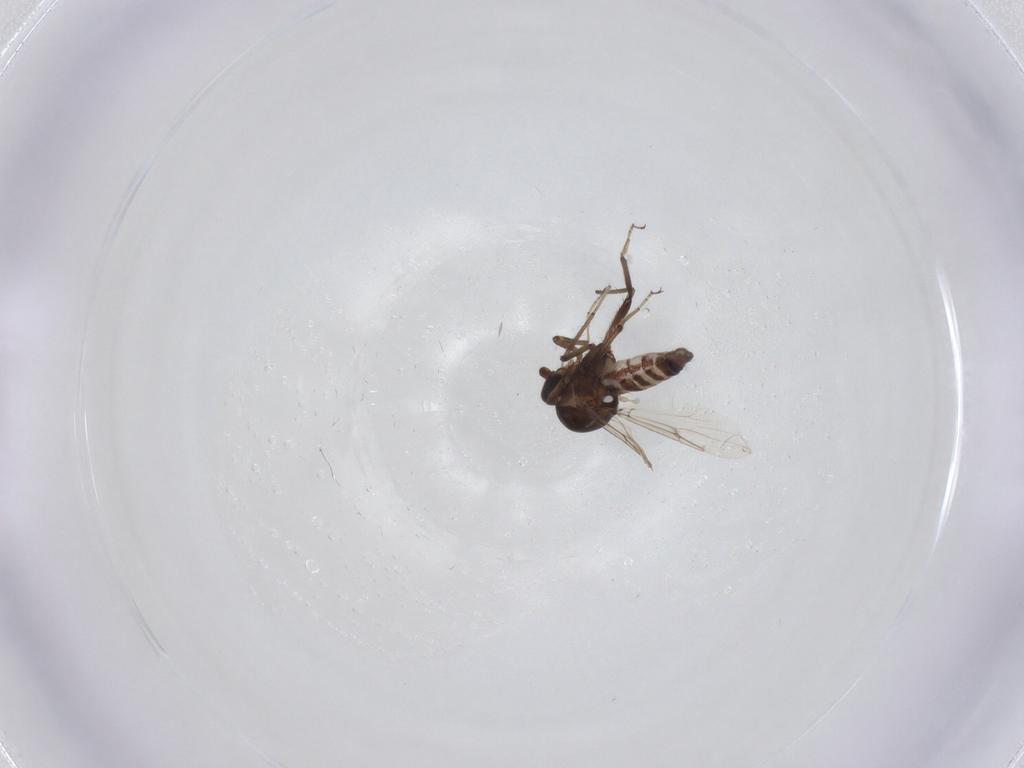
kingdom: Animalia
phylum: Arthropoda
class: Insecta
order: Diptera
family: Ceratopogonidae
